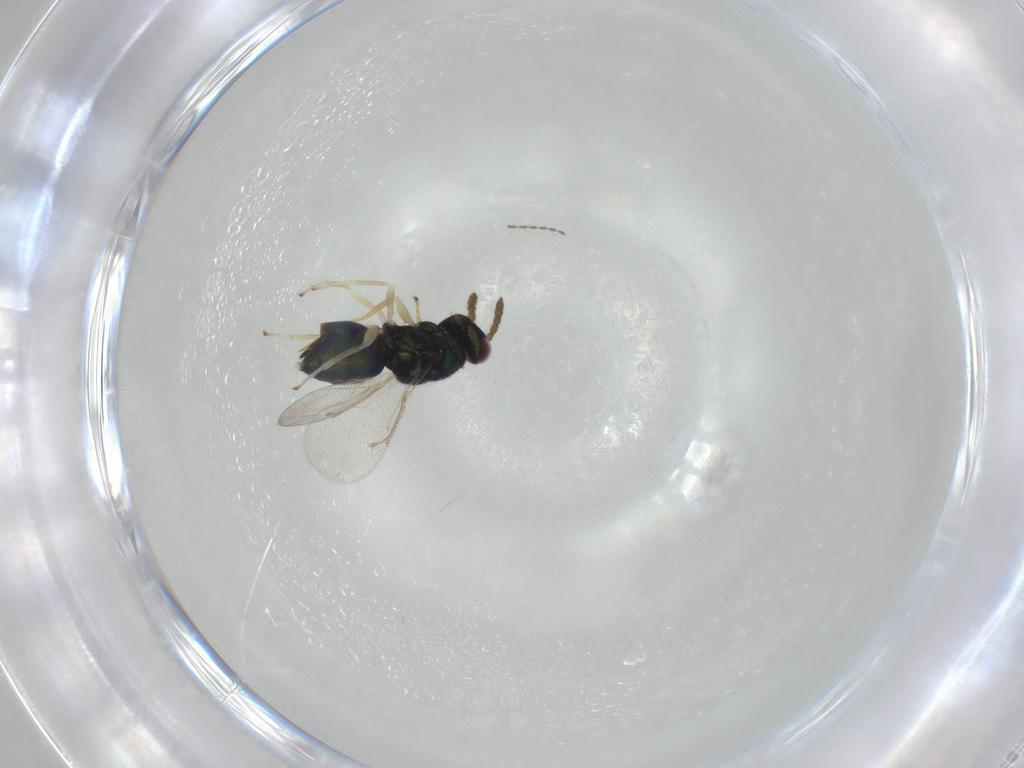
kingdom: Animalia
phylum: Arthropoda
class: Insecta
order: Hymenoptera
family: Eulophidae
